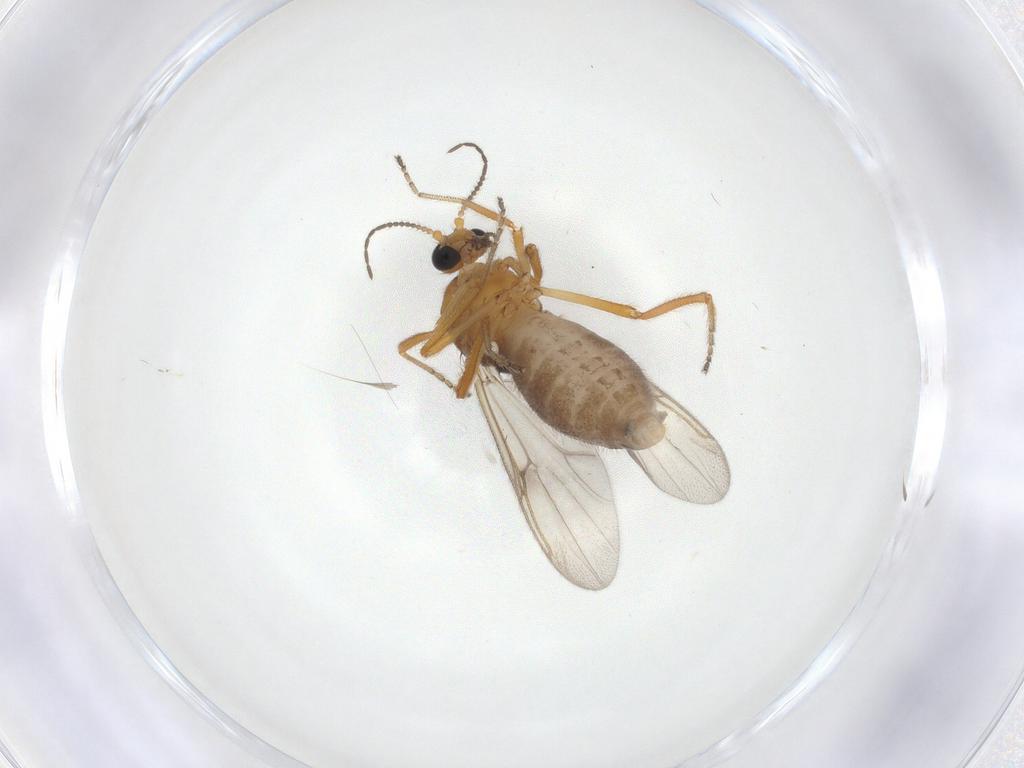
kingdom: Animalia
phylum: Arthropoda
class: Insecta
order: Diptera
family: Ceratopogonidae
